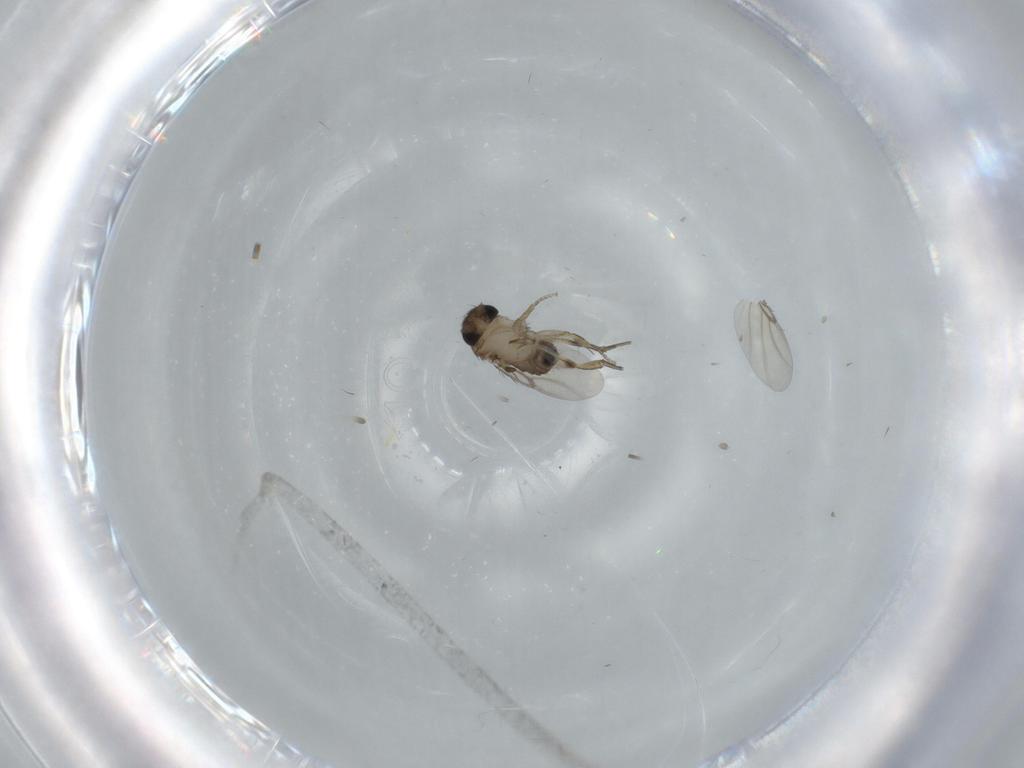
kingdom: Animalia
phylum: Arthropoda
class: Insecta
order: Diptera
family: Phoridae
